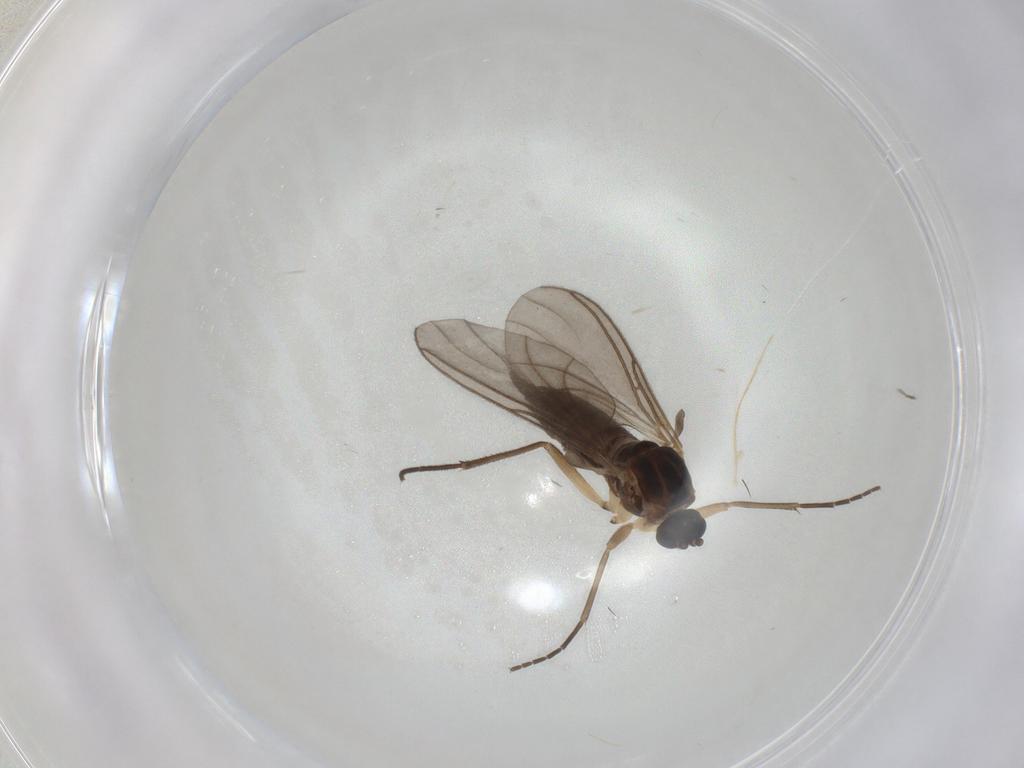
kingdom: Animalia
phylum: Arthropoda
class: Insecta
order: Diptera
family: Sciaridae
